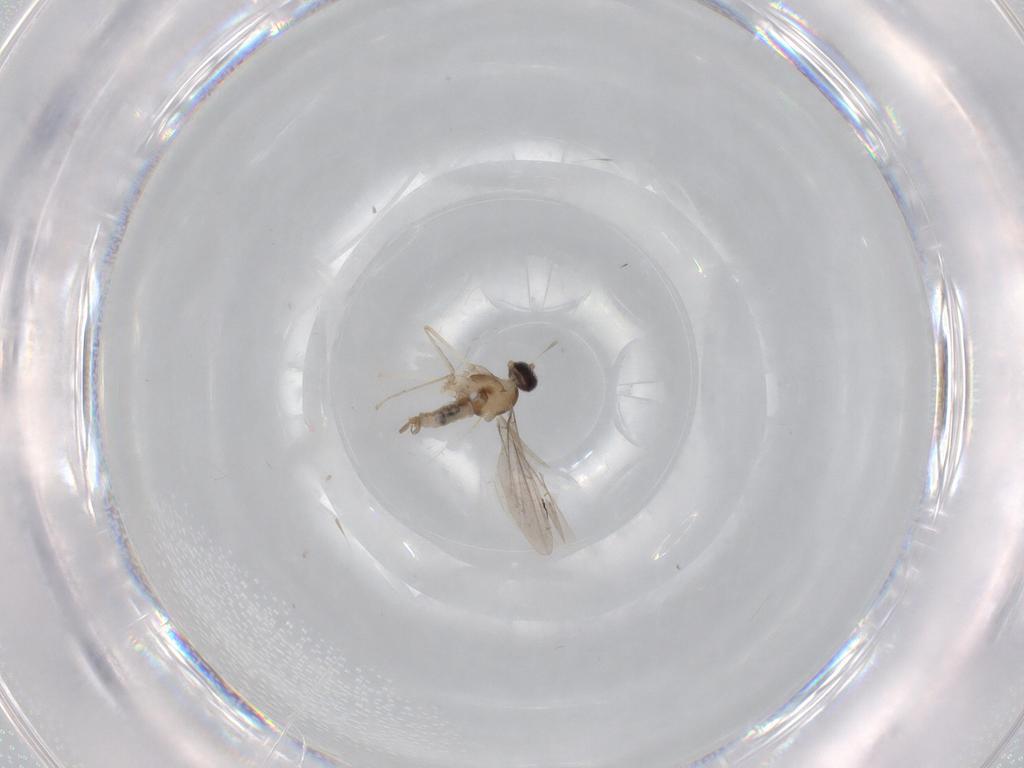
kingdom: Animalia
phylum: Arthropoda
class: Insecta
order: Diptera
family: Cecidomyiidae
